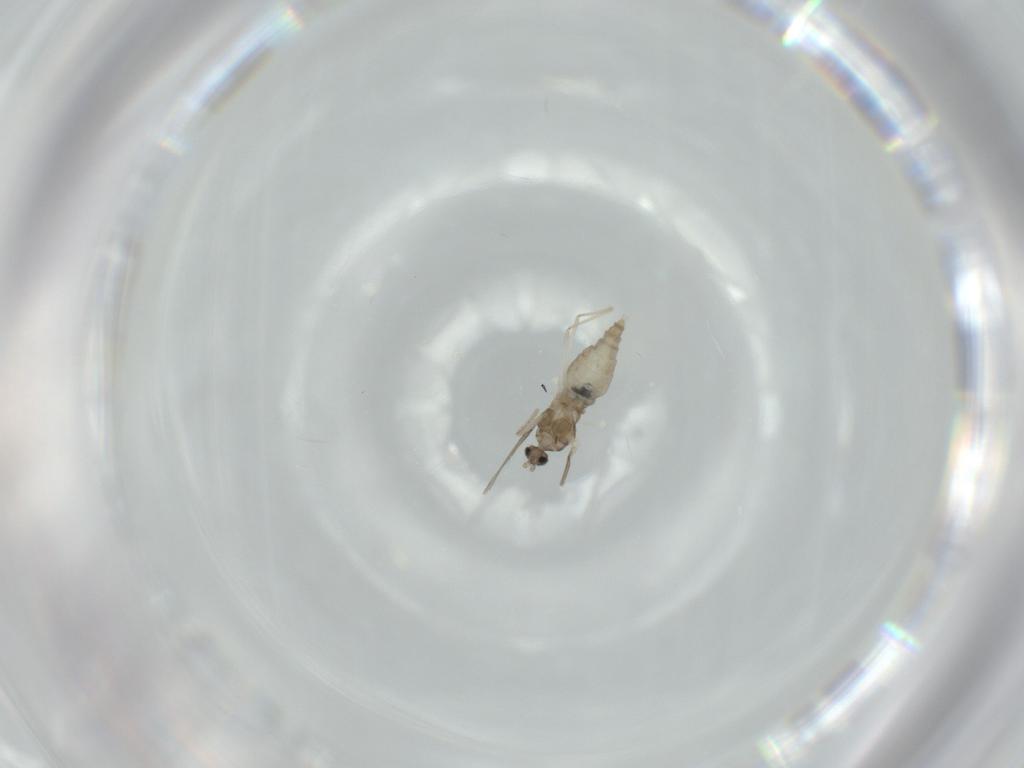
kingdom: Animalia
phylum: Arthropoda
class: Insecta
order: Diptera
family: Cecidomyiidae
